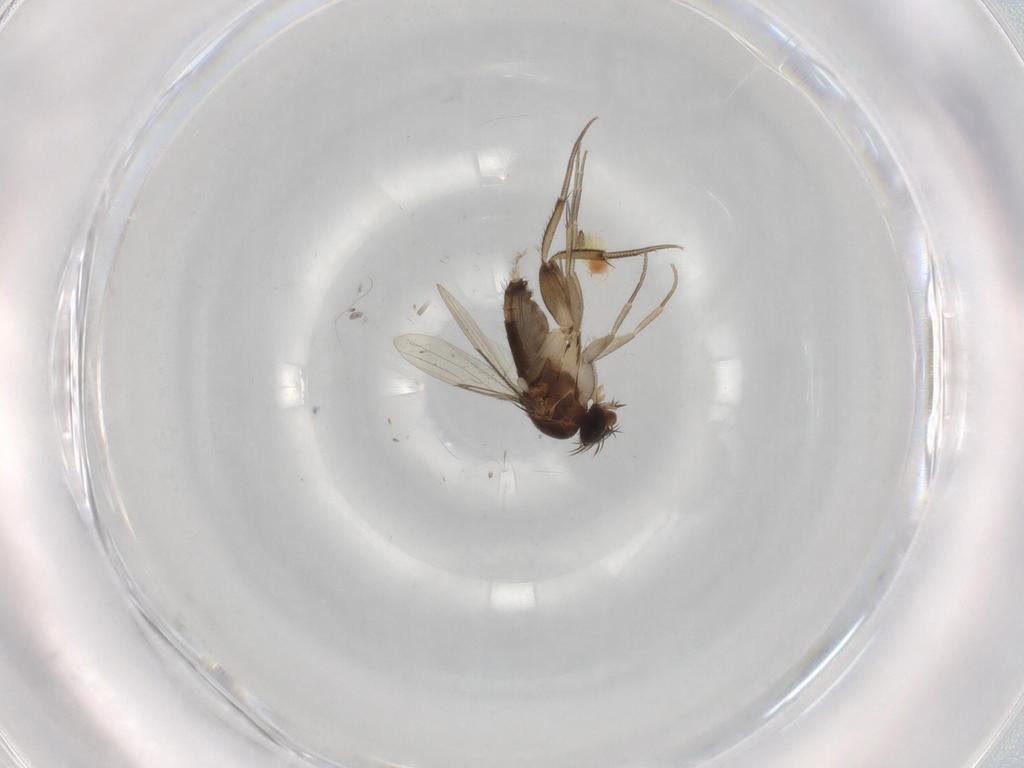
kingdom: Animalia
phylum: Arthropoda
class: Insecta
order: Diptera
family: Phoridae
